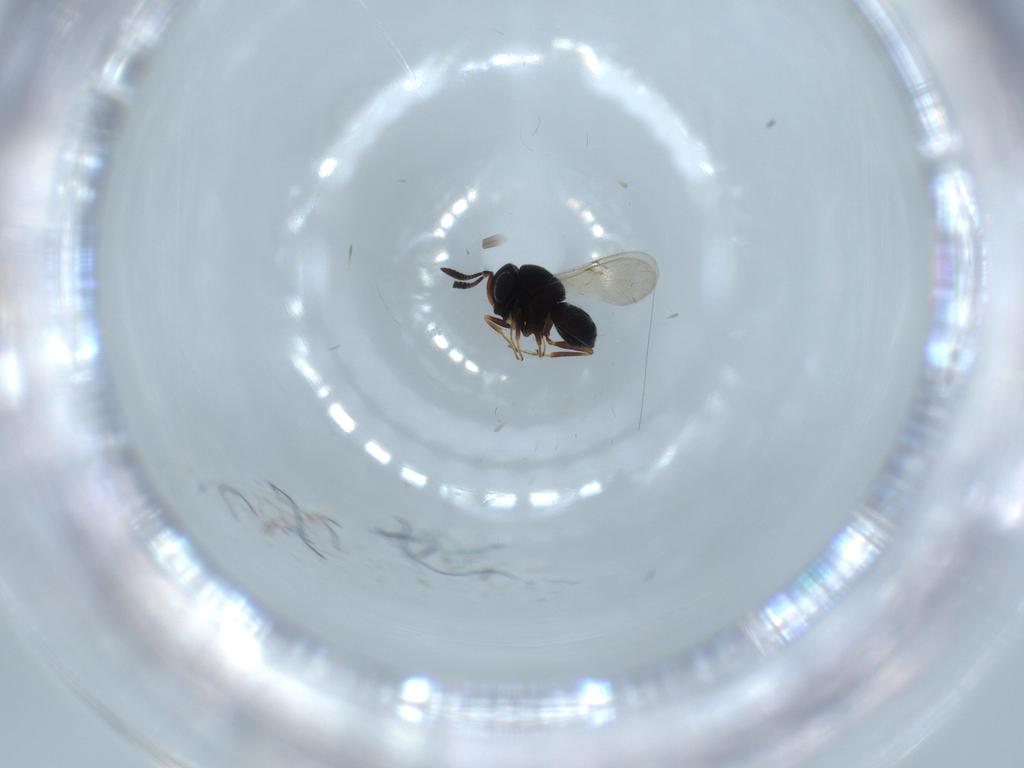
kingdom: Animalia
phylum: Arthropoda
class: Insecta
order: Hymenoptera
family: Scelionidae
